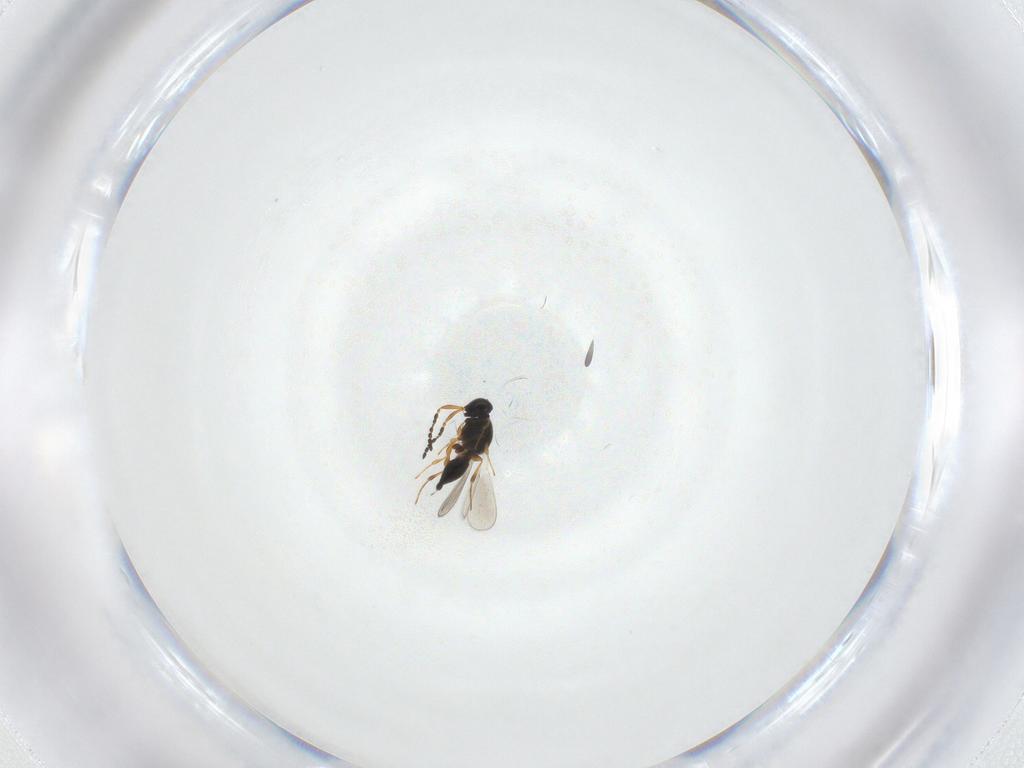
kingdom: Animalia
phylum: Arthropoda
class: Insecta
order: Hymenoptera
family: Platygastridae
